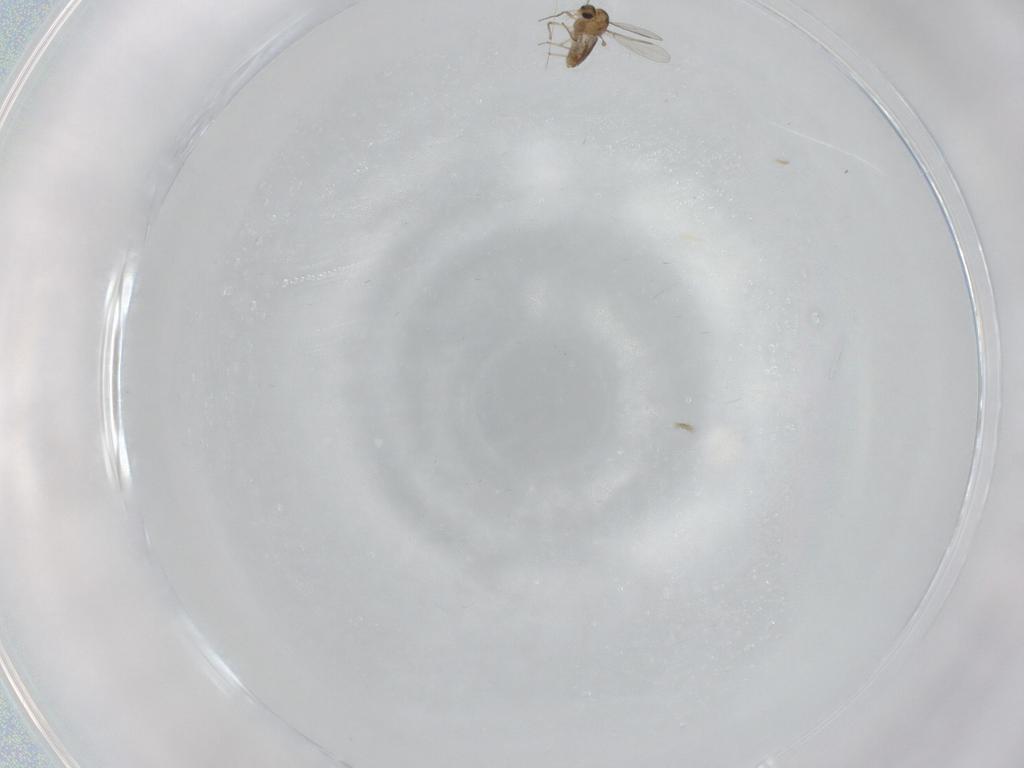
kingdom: Animalia
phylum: Arthropoda
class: Insecta
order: Diptera
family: Chironomidae
